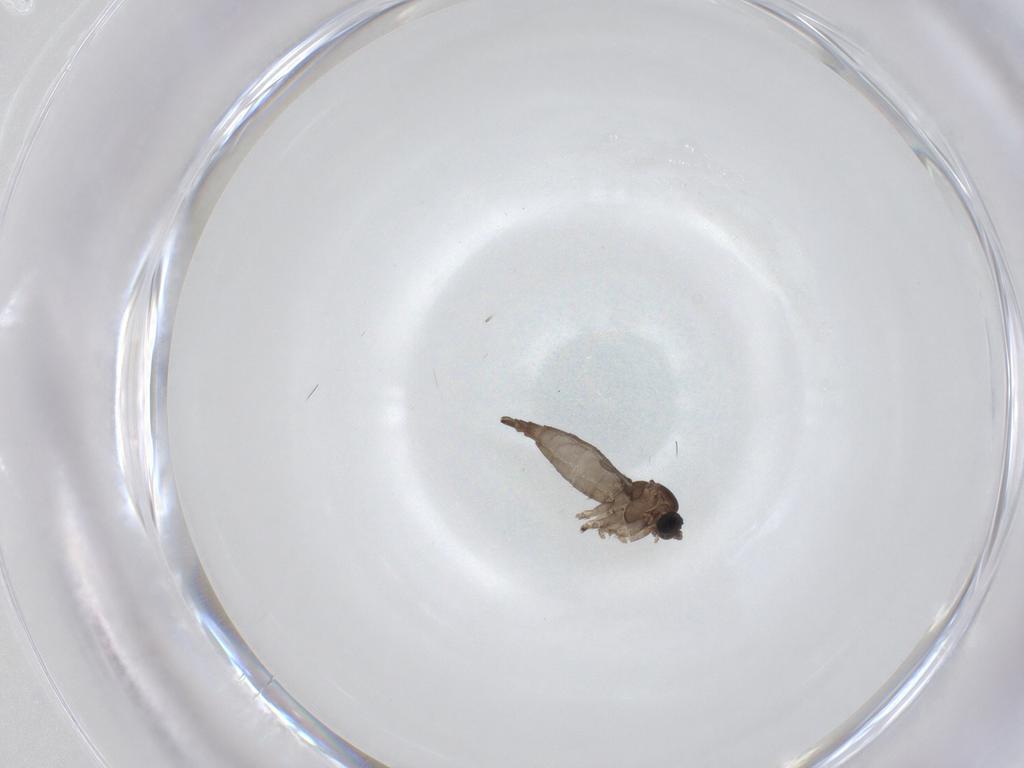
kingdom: Animalia
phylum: Arthropoda
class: Insecta
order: Diptera
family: Sciaridae
